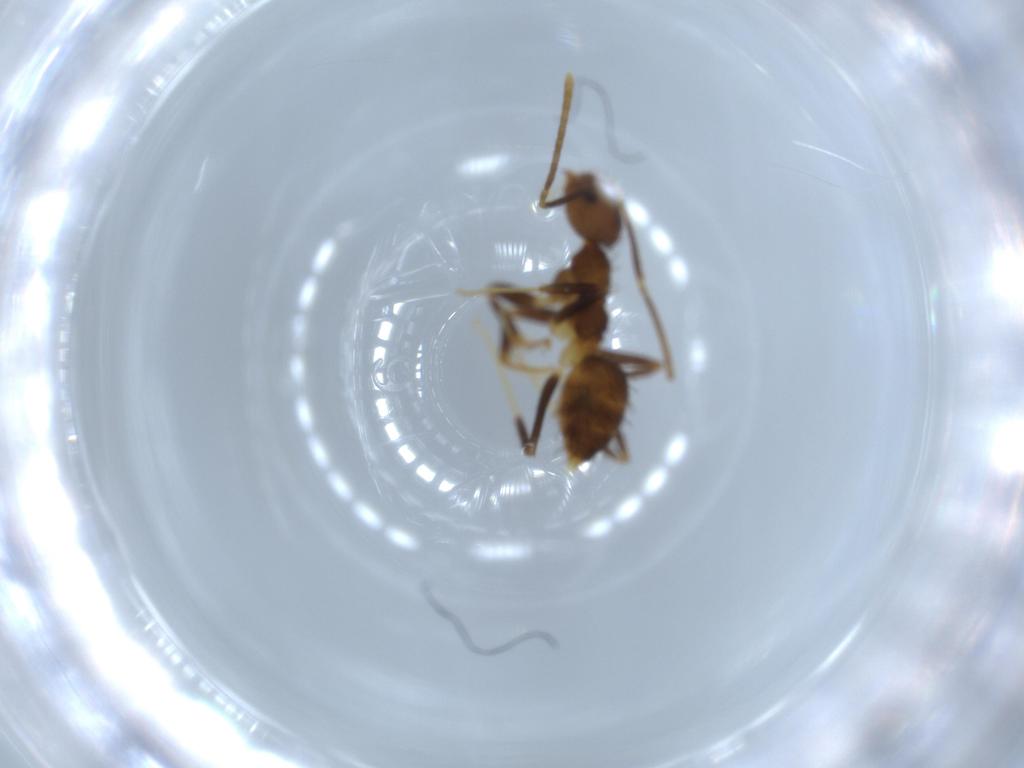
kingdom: Animalia
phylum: Arthropoda
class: Insecta
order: Hymenoptera
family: Formicidae
